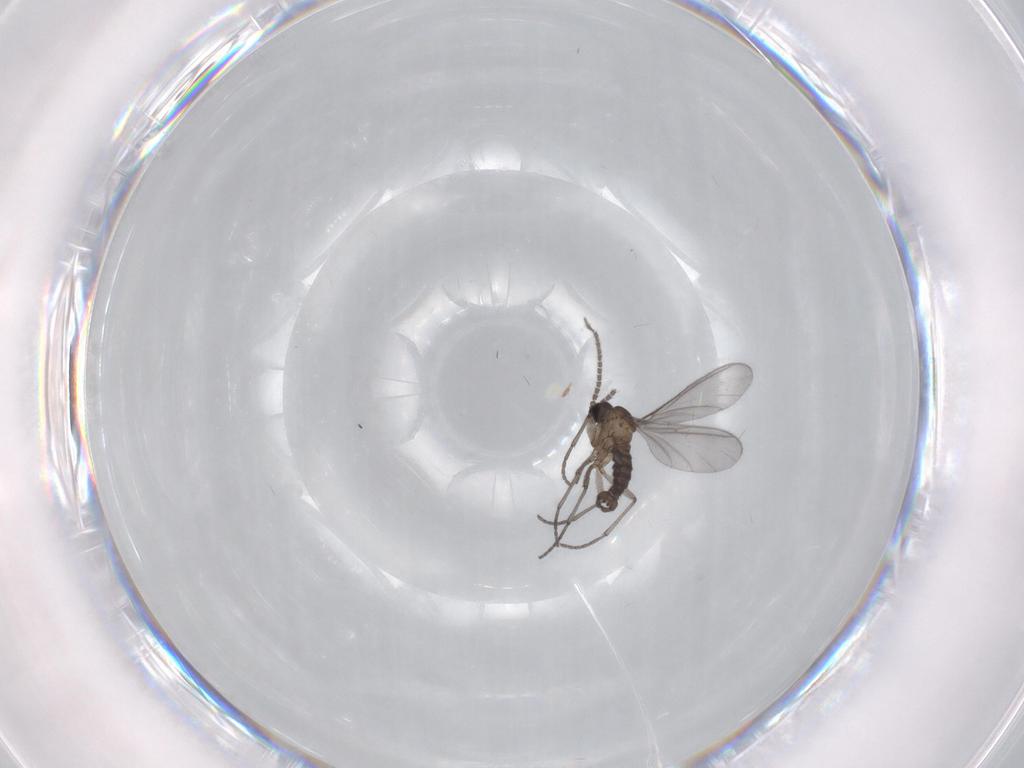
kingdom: Animalia
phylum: Arthropoda
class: Insecta
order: Diptera
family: Sciaridae
